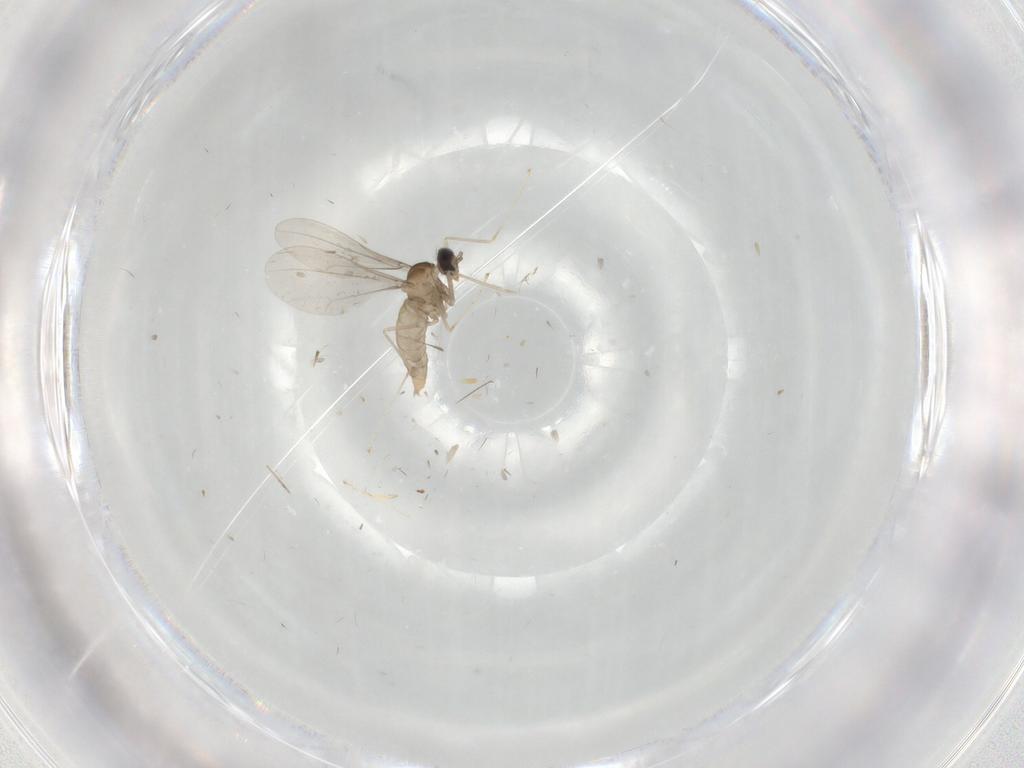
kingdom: Animalia
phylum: Arthropoda
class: Insecta
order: Diptera
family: Cecidomyiidae
